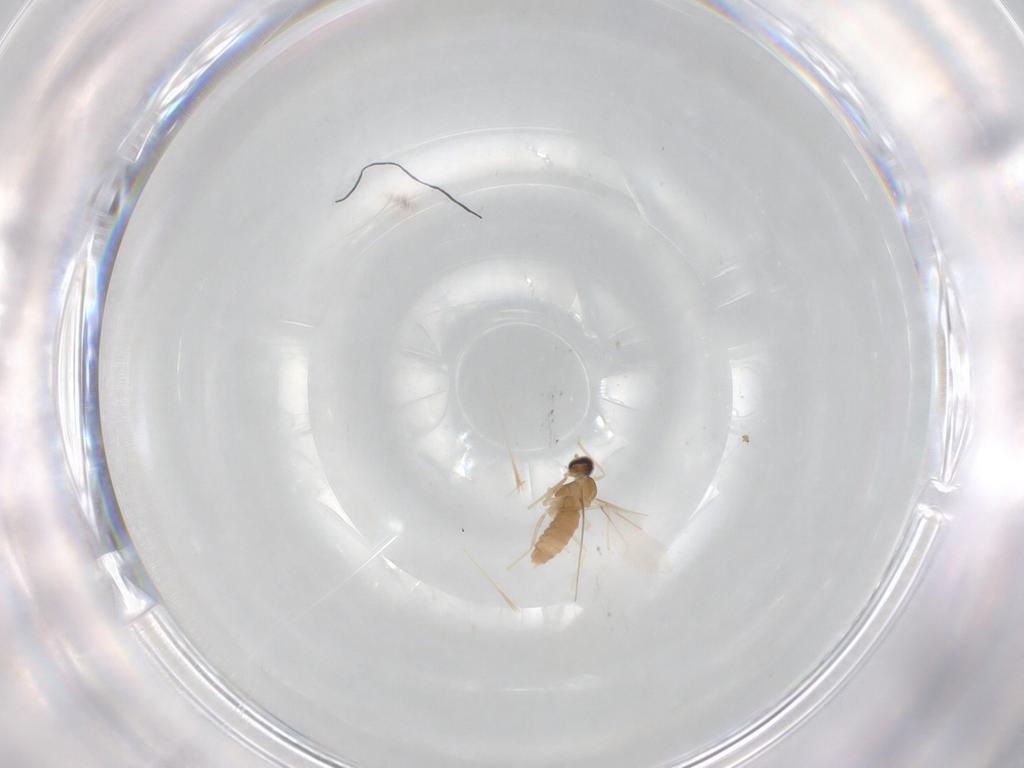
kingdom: Animalia
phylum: Arthropoda
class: Insecta
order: Diptera
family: Cecidomyiidae
